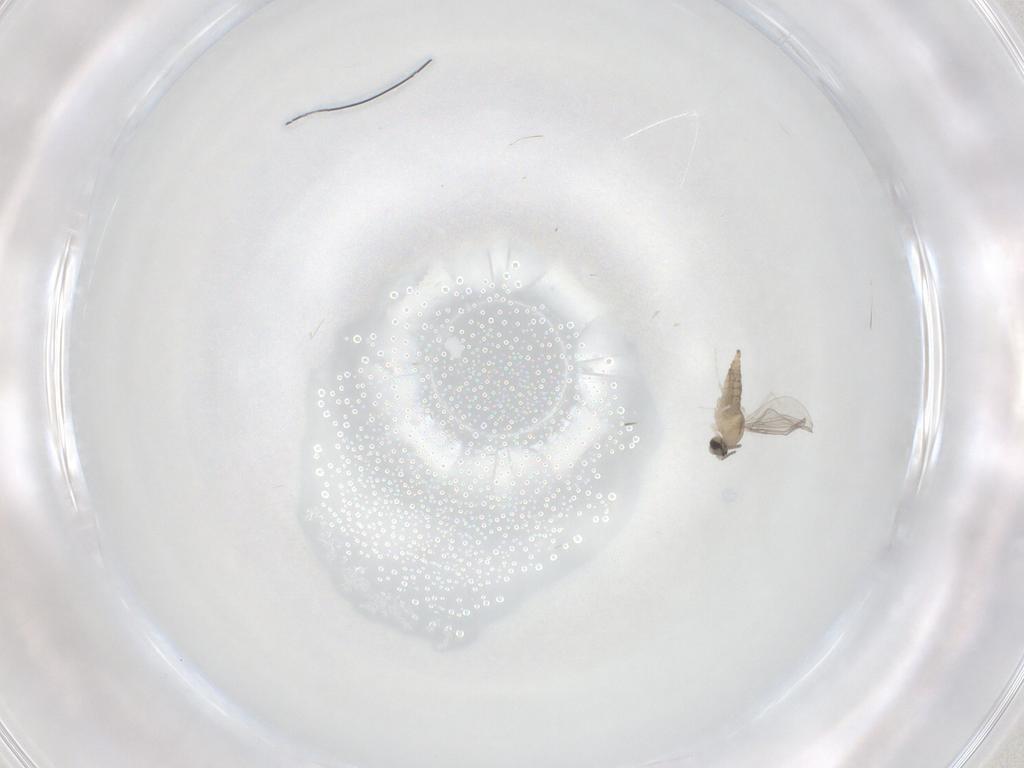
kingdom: Animalia
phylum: Arthropoda
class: Insecta
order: Diptera
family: Cecidomyiidae
